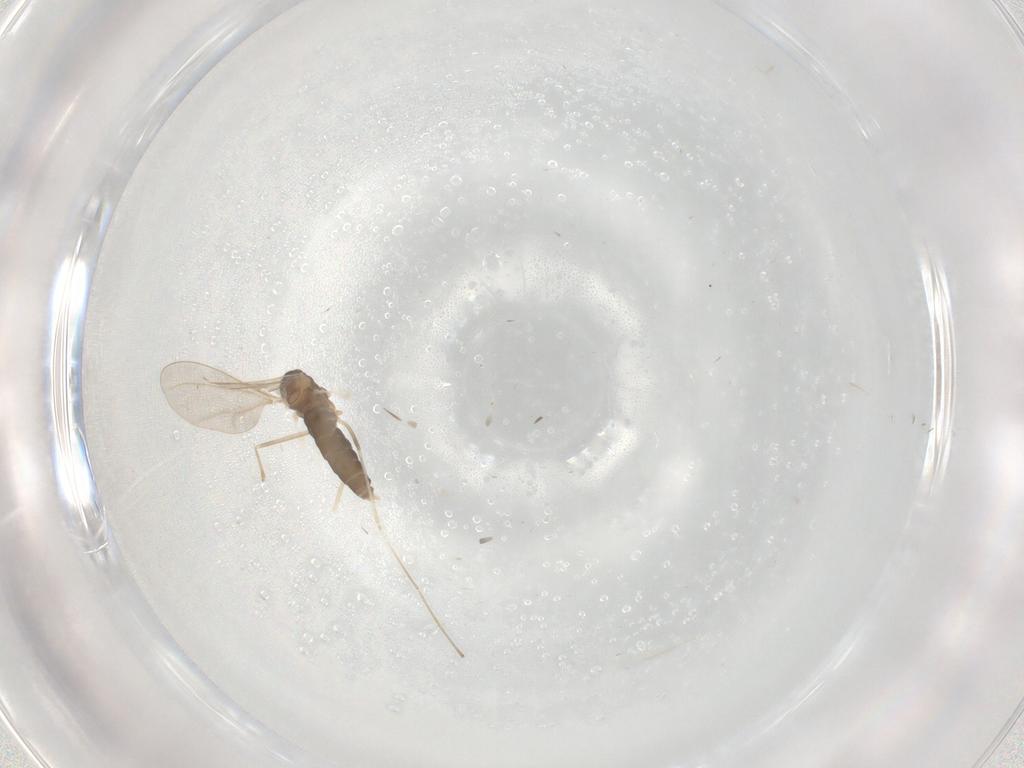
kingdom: Animalia
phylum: Arthropoda
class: Insecta
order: Diptera
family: Cecidomyiidae
